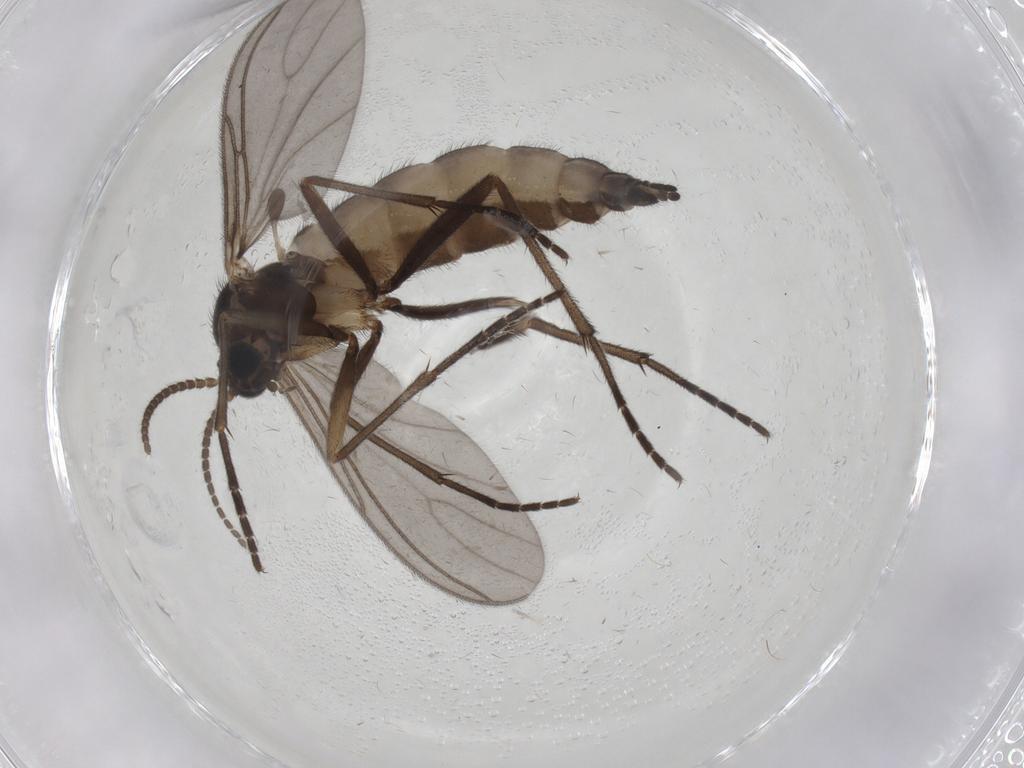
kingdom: Animalia
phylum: Arthropoda
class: Insecta
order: Diptera
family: Sciaridae
